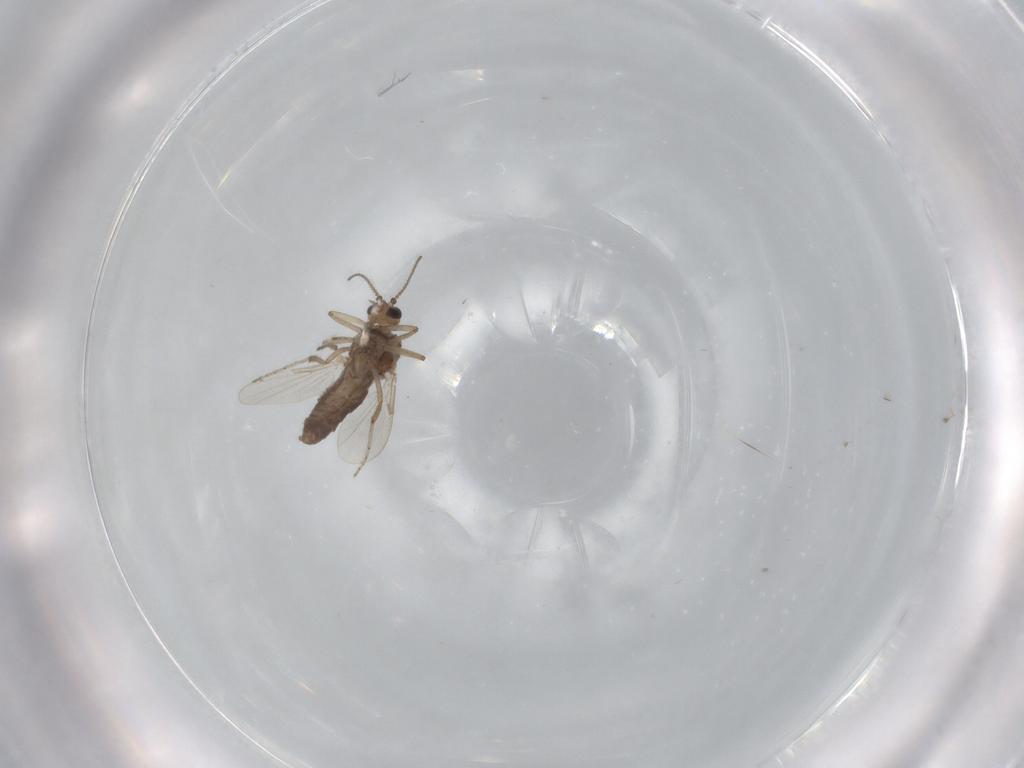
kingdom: Animalia
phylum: Arthropoda
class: Insecta
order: Diptera
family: Ceratopogonidae
